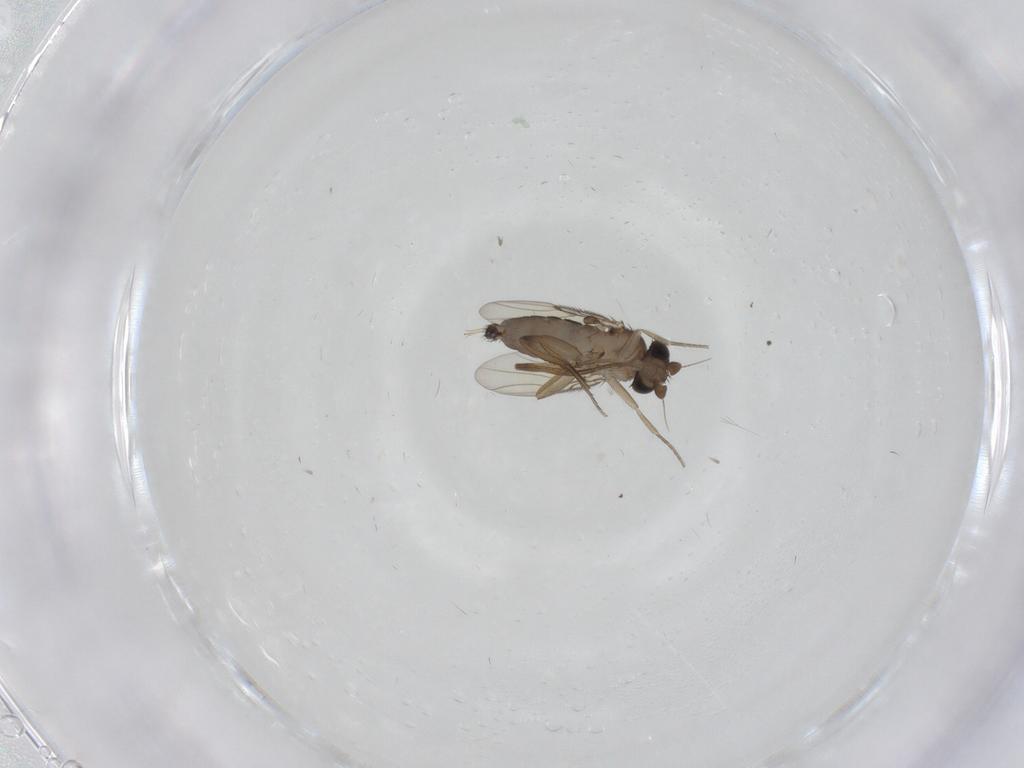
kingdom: Animalia
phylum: Arthropoda
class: Insecta
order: Diptera
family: Phoridae
